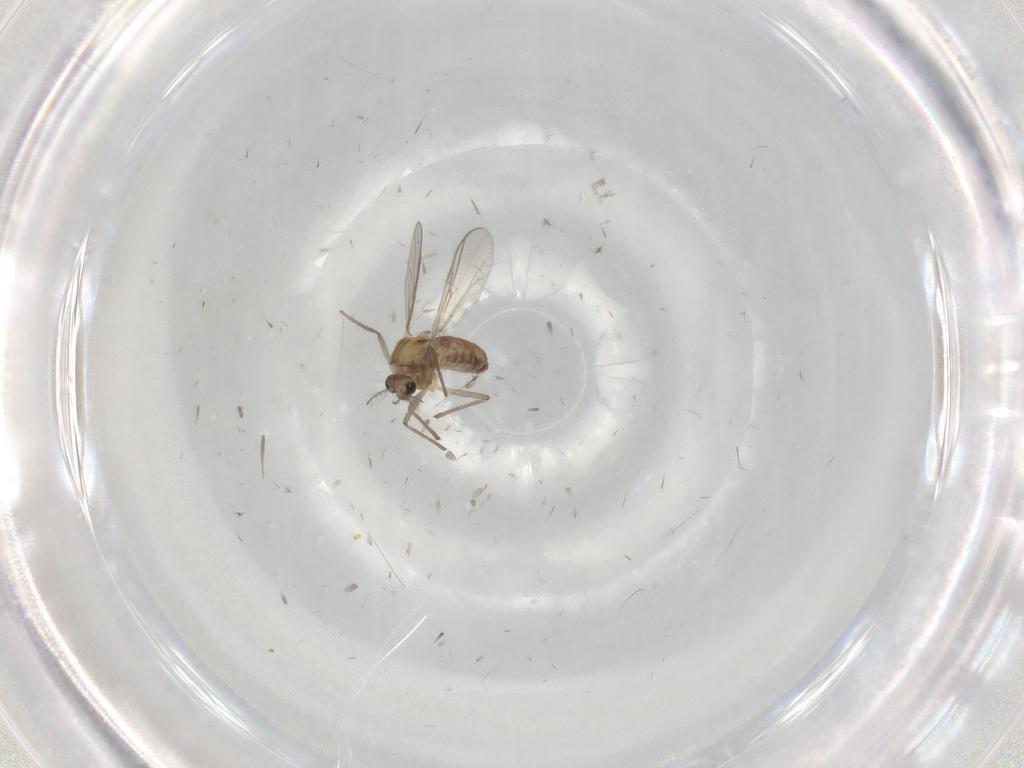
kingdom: Animalia
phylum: Arthropoda
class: Insecta
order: Diptera
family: Chironomidae
